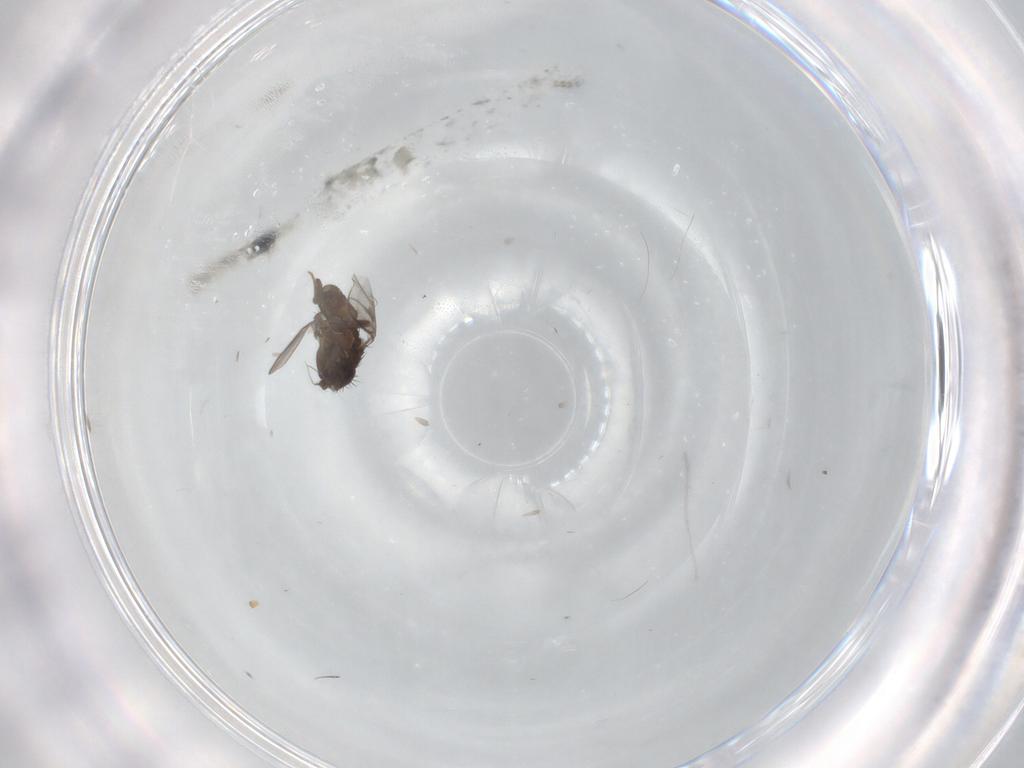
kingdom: Animalia
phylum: Arthropoda
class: Insecta
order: Diptera
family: Sphaeroceridae
